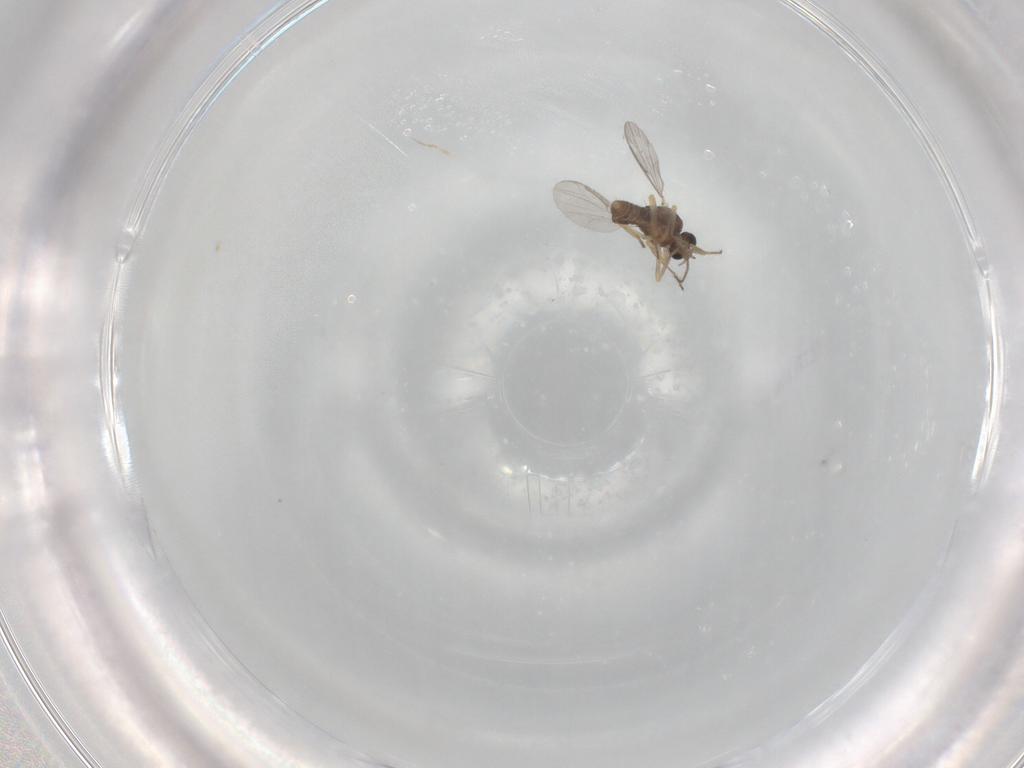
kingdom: Animalia
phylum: Arthropoda
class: Insecta
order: Diptera
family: Ceratopogonidae
